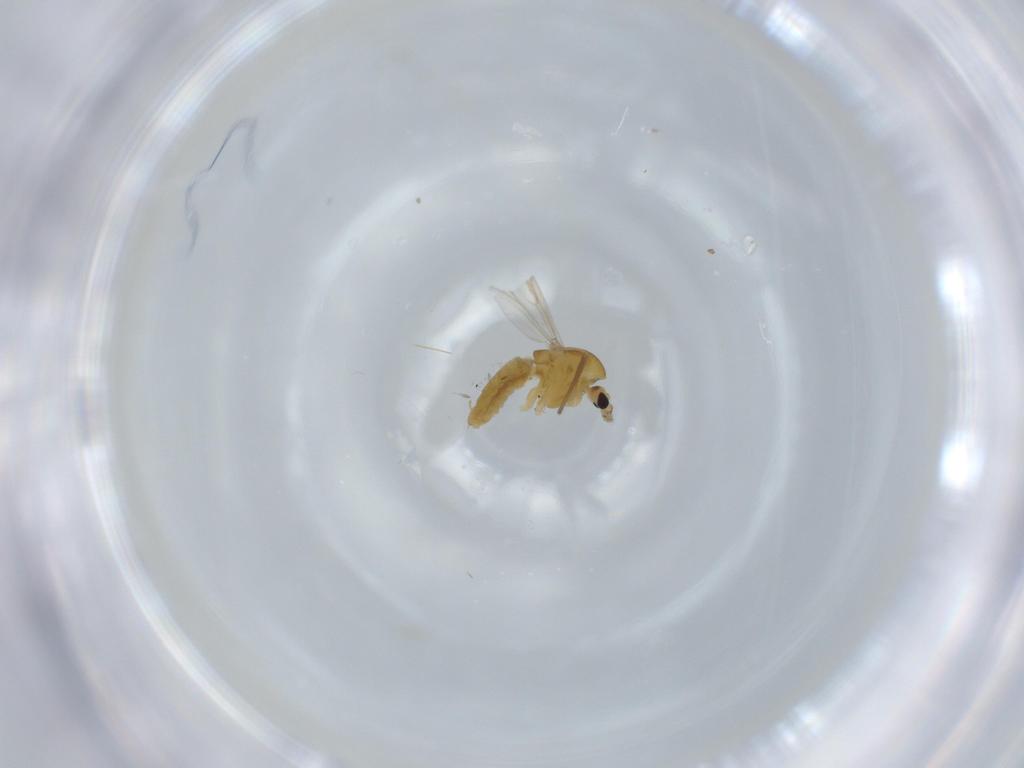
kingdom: Animalia
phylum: Arthropoda
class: Insecta
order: Diptera
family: Chironomidae
